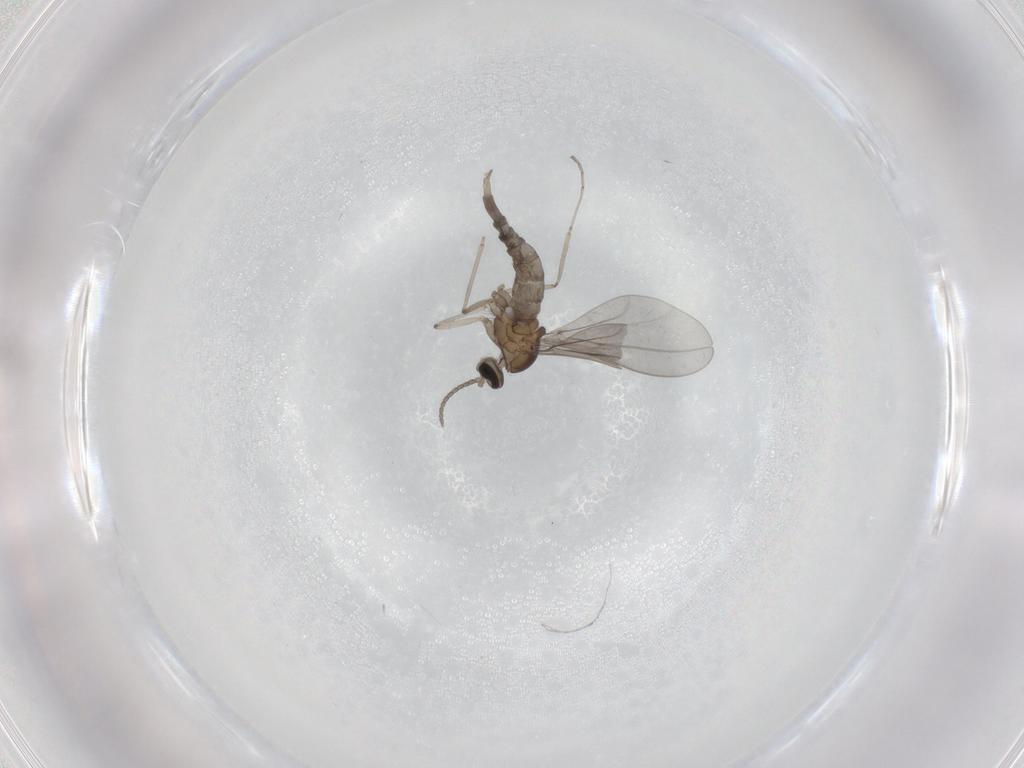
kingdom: Animalia
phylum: Arthropoda
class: Insecta
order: Diptera
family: Cecidomyiidae
